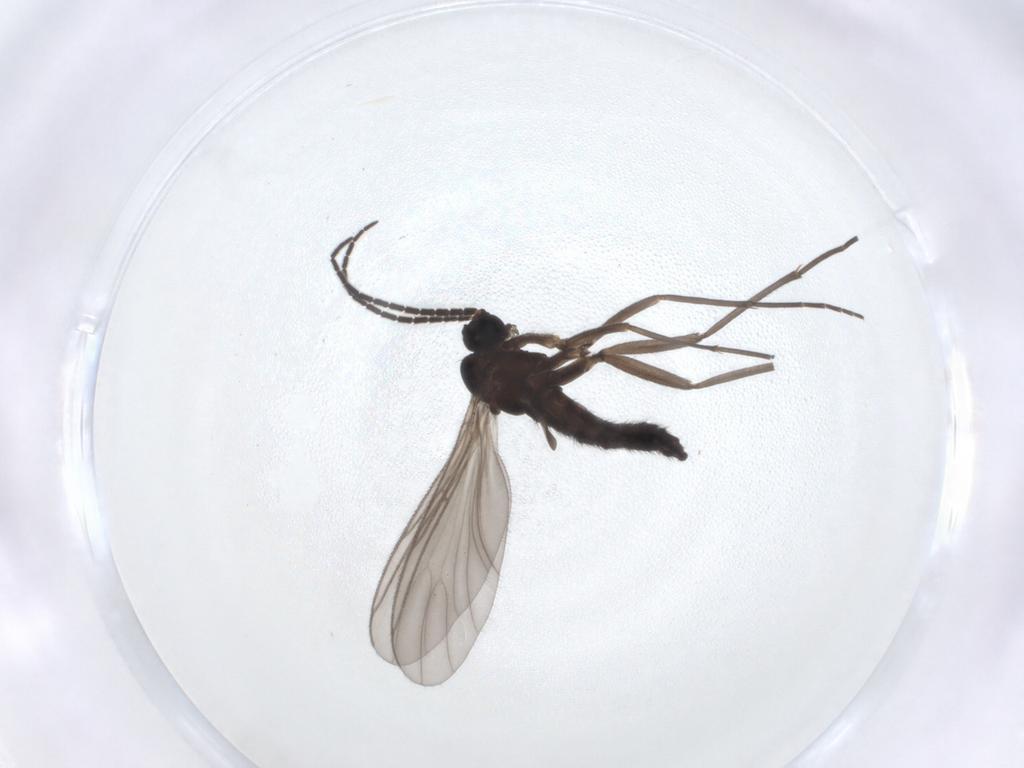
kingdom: Animalia
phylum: Arthropoda
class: Insecta
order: Diptera
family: Sciaridae
